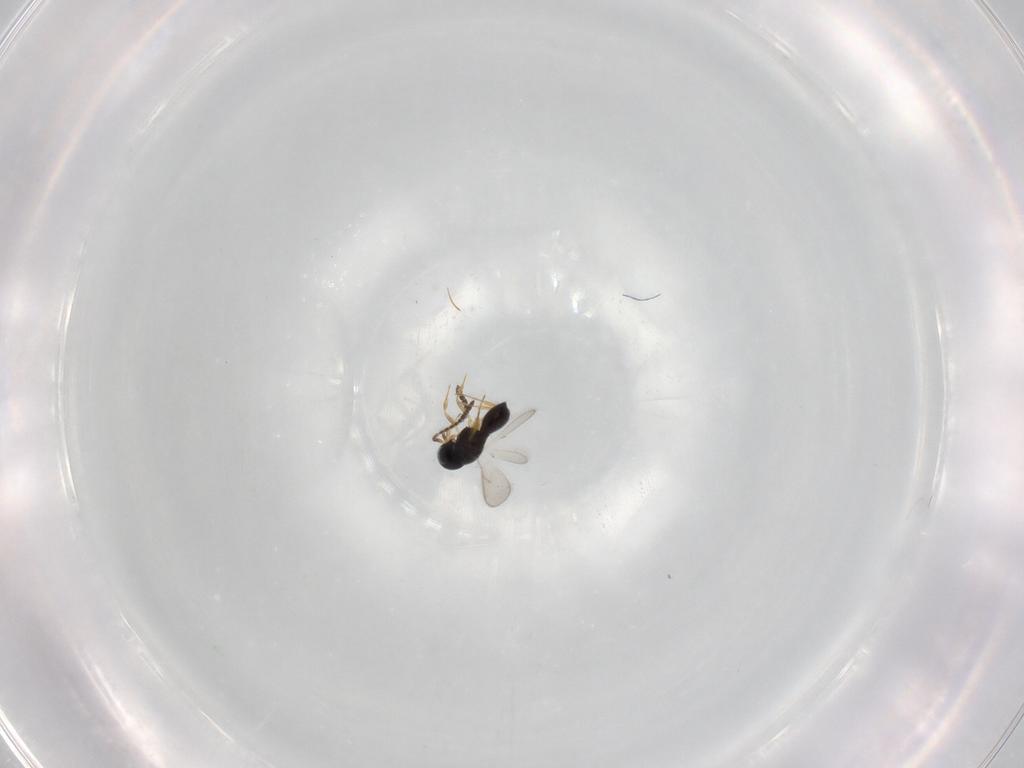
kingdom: Animalia
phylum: Arthropoda
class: Insecta
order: Hymenoptera
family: Scelionidae
